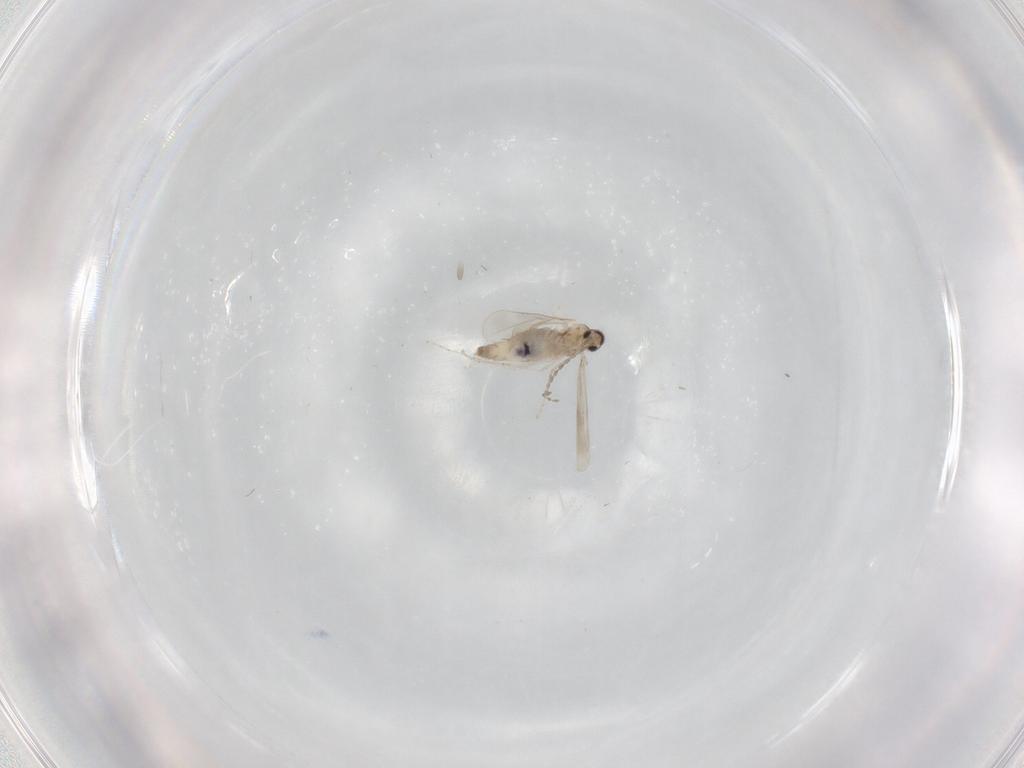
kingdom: Animalia
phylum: Arthropoda
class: Insecta
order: Diptera
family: Cecidomyiidae
